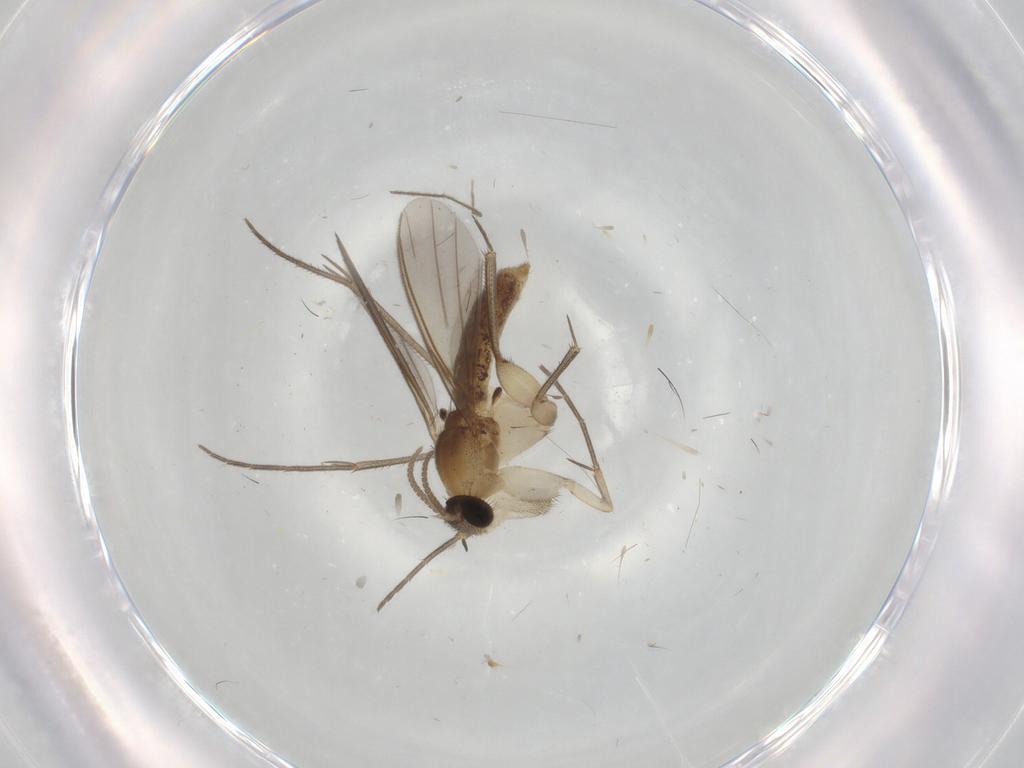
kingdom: Animalia
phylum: Arthropoda
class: Insecta
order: Diptera
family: Mycetophilidae
